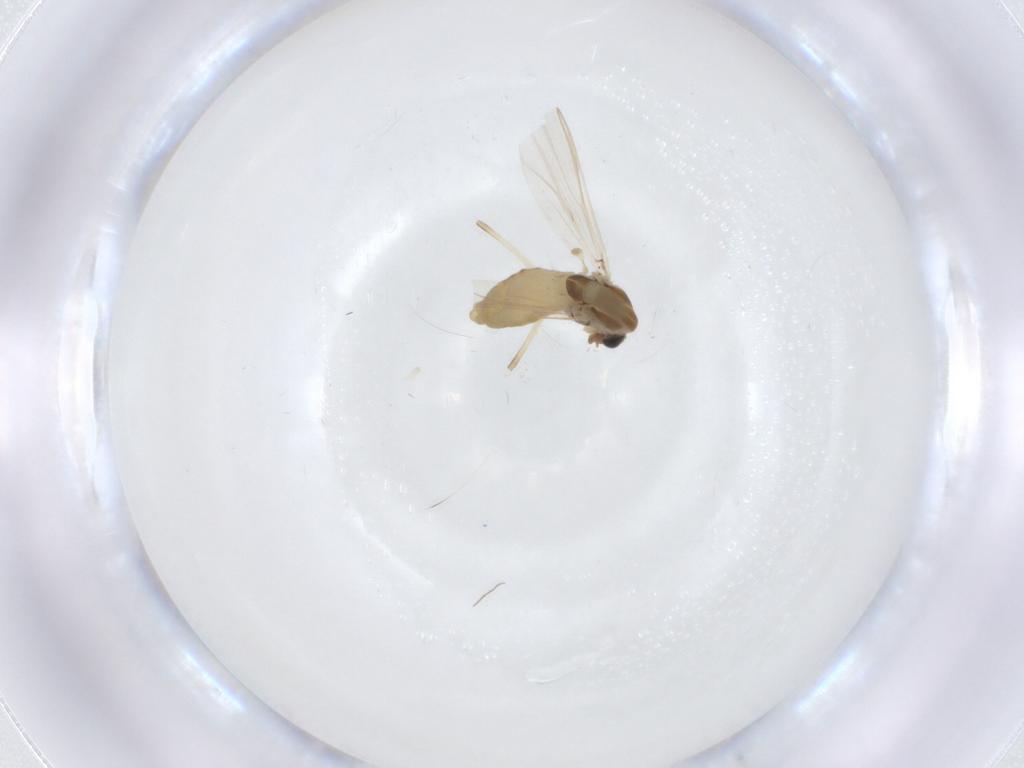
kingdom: Animalia
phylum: Arthropoda
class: Insecta
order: Diptera
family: Chironomidae
